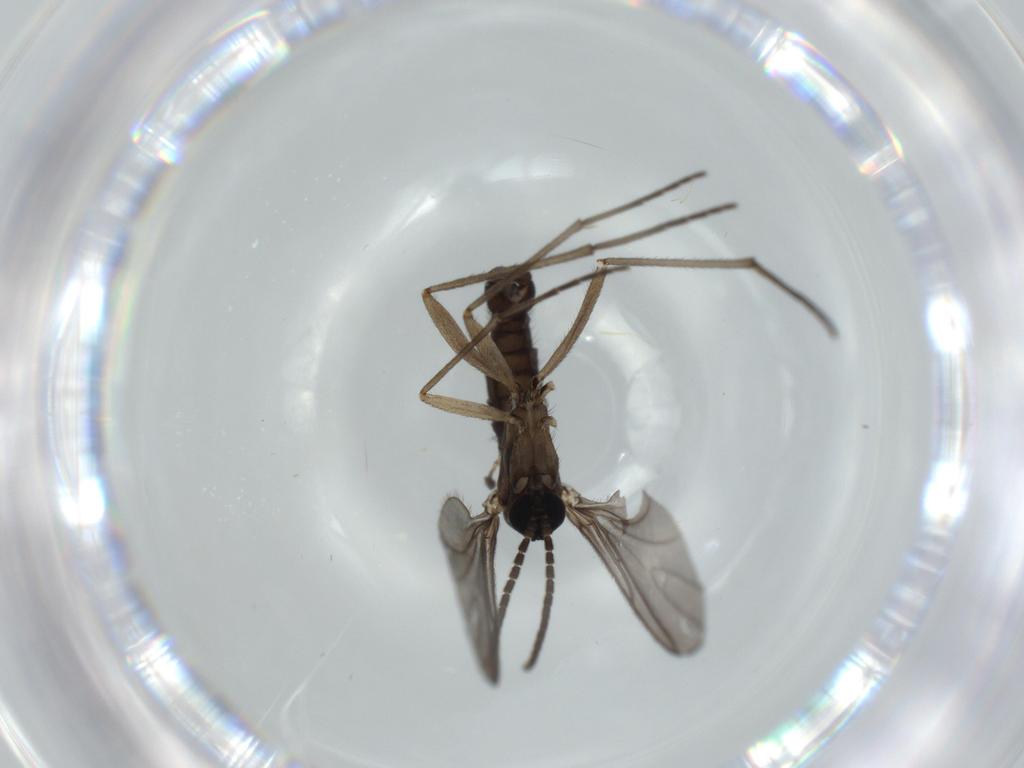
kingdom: Animalia
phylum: Arthropoda
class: Insecta
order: Diptera
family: Sciaridae
